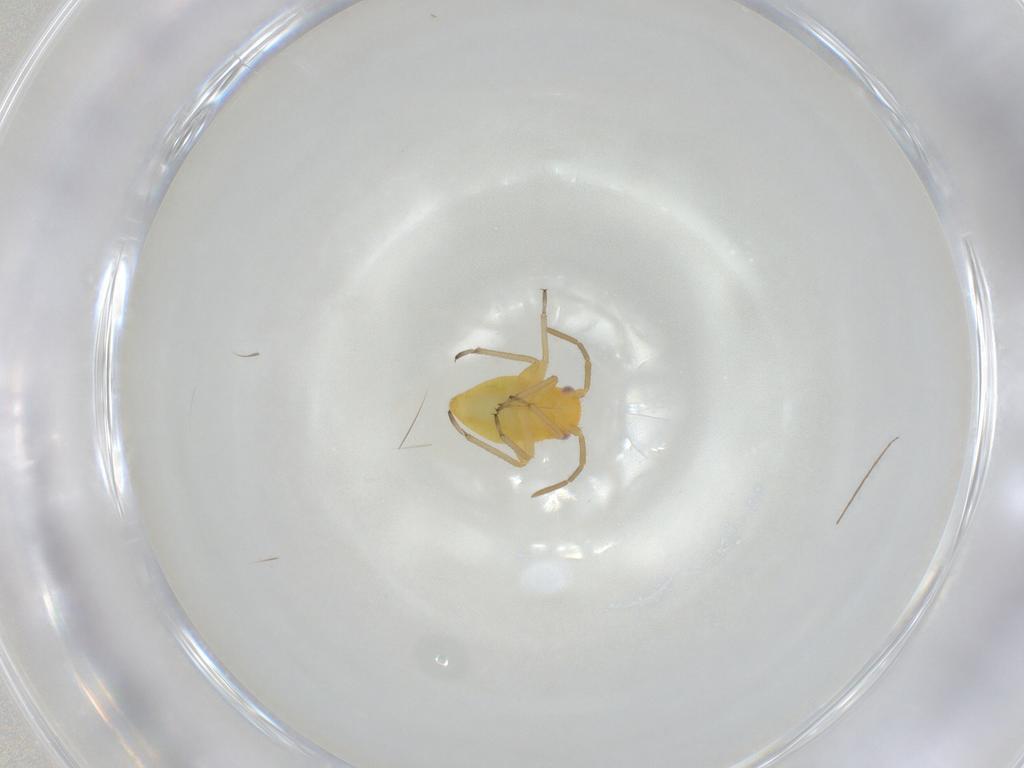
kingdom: Animalia
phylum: Arthropoda
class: Insecta
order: Hemiptera
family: Miridae
